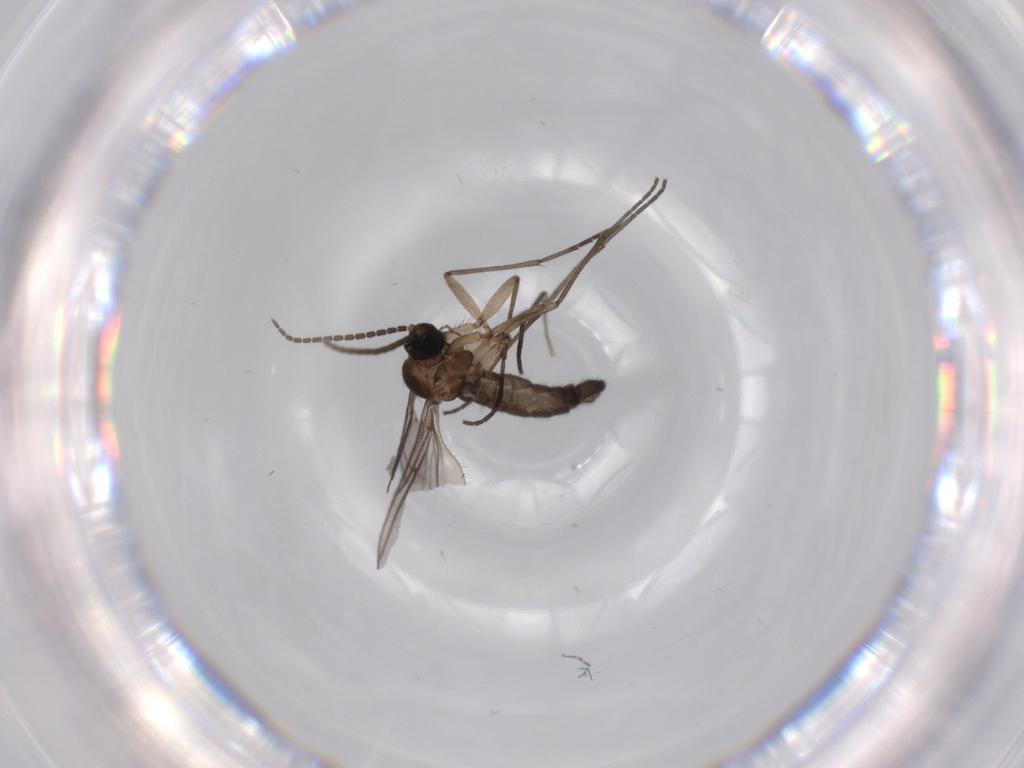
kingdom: Animalia
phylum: Arthropoda
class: Insecta
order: Diptera
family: Sciaridae
